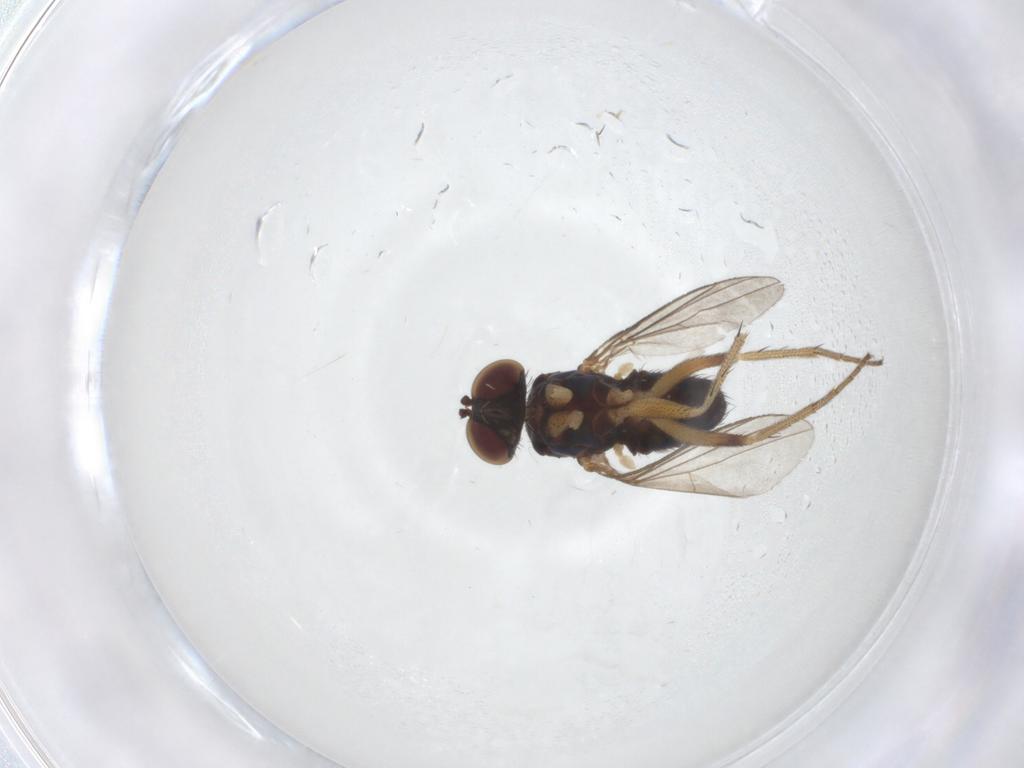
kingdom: Animalia
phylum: Arthropoda
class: Insecta
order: Diptera
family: Cecidomyiidae
